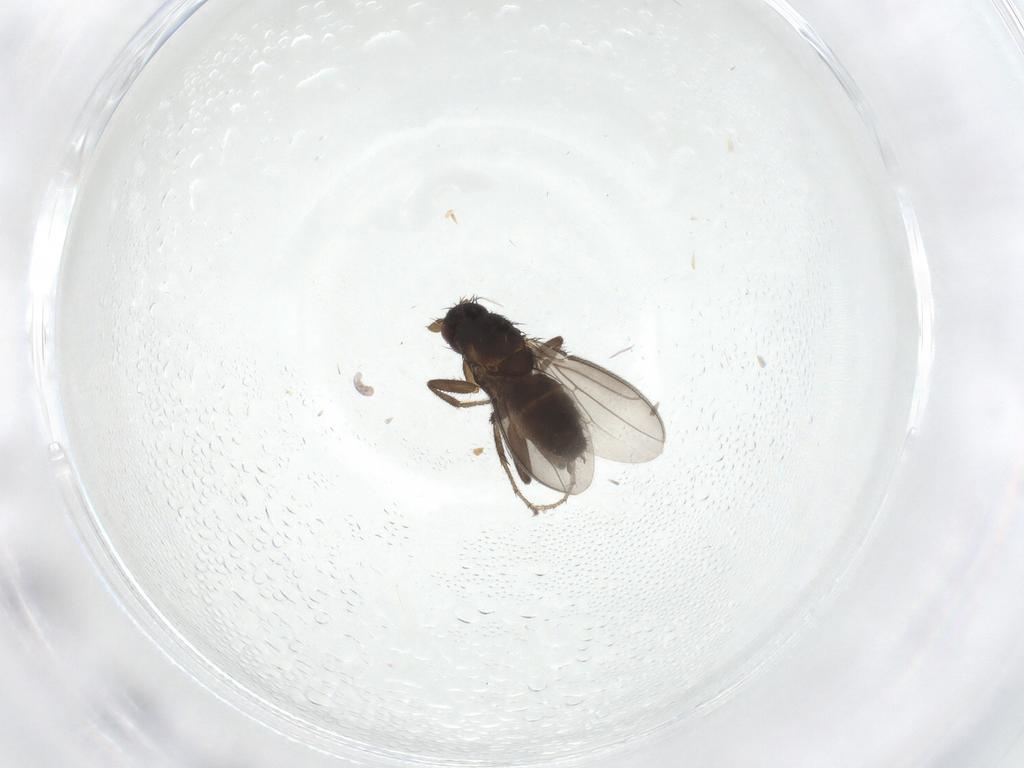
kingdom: Animalia
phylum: Arthropoda
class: Insecta
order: Diptera
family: Sphaeroceridae
